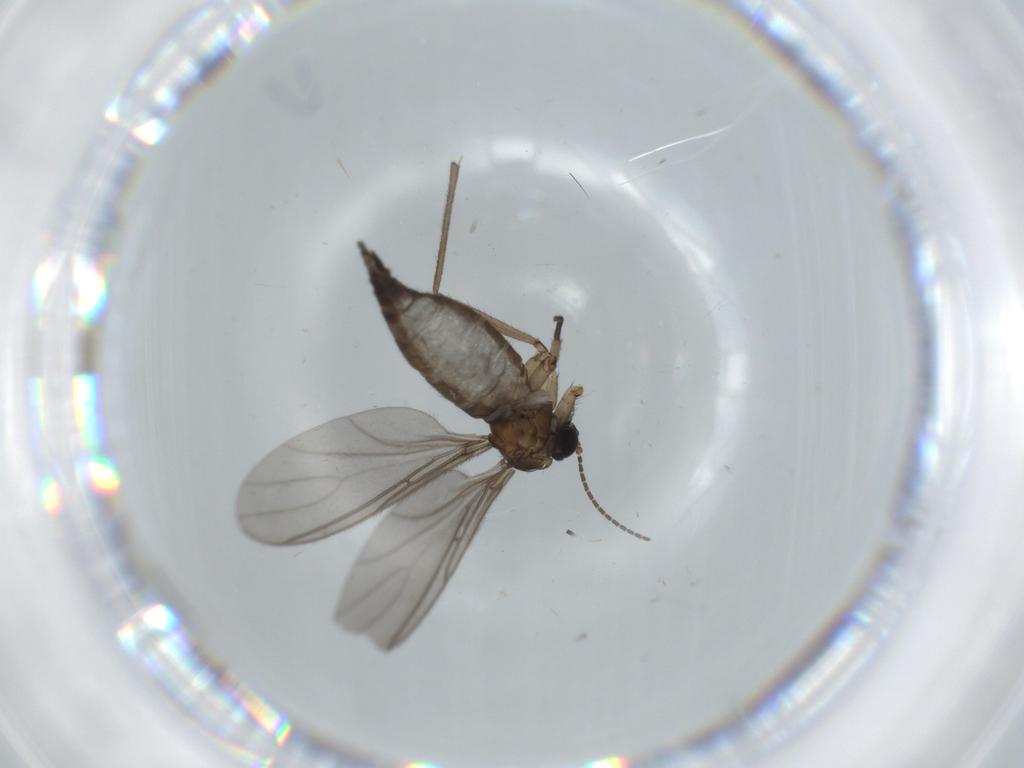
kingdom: Animalia
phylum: Arthropoda
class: Insecta
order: Diptera
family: Sciaridae
